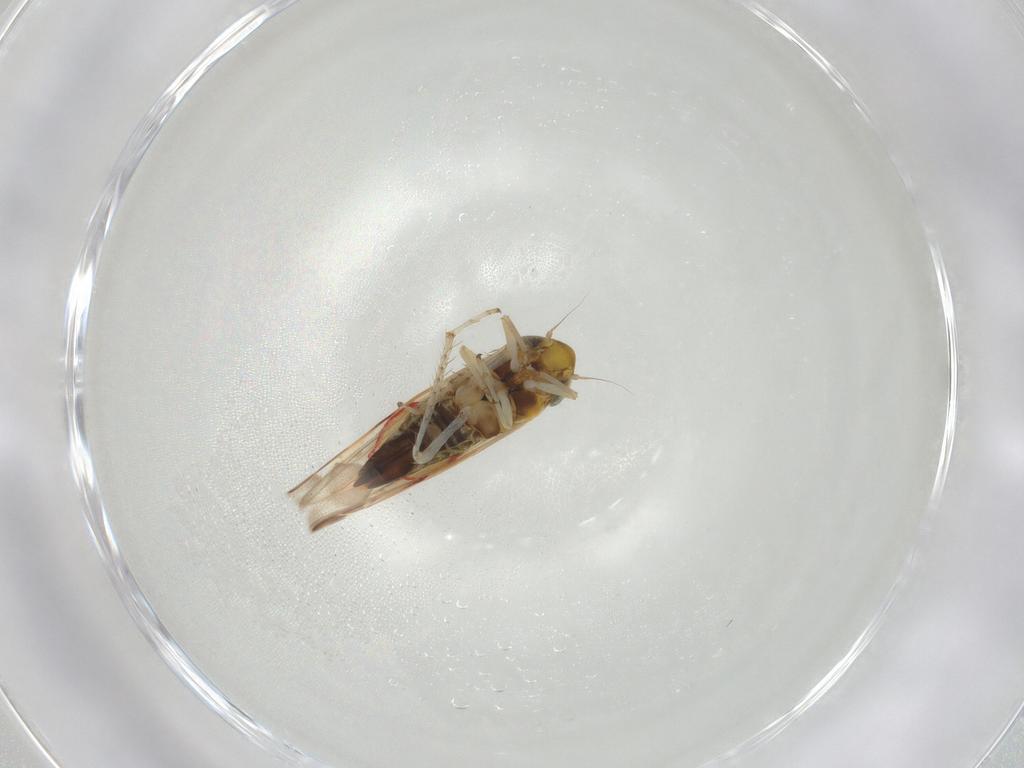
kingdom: Animalia
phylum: Arthropoda
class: Insecta
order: Hemiptera
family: Cicadellidae
